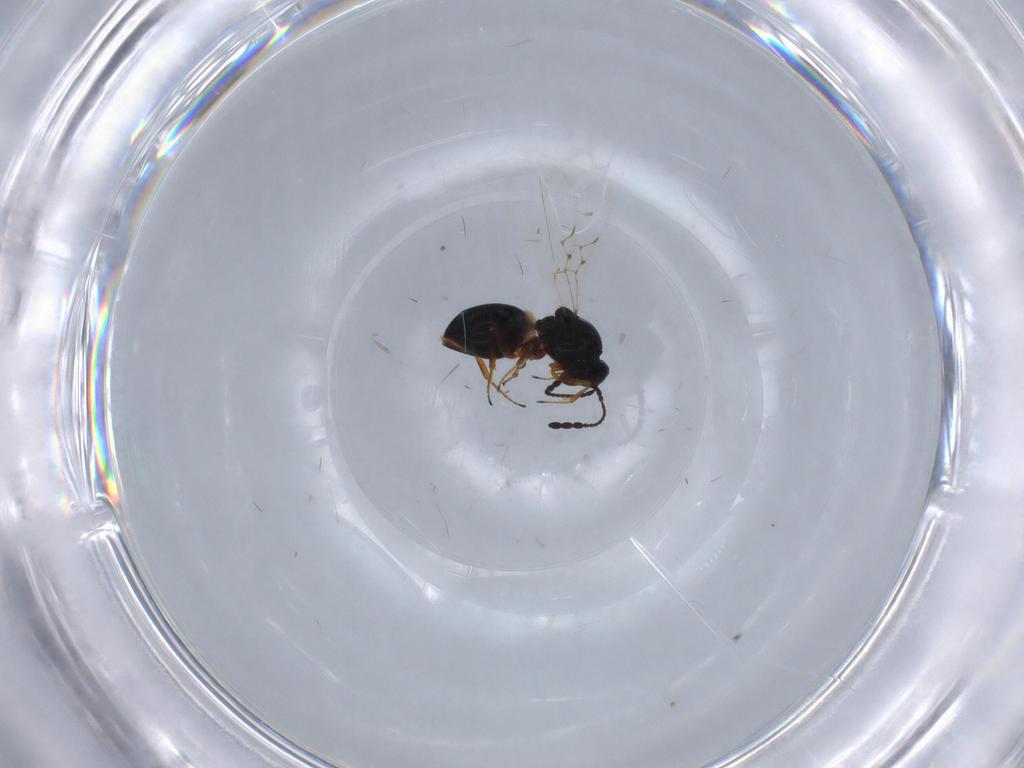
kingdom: Animalia
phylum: Arthropoda
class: Insecta
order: Hymenoptera
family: Figitidae
